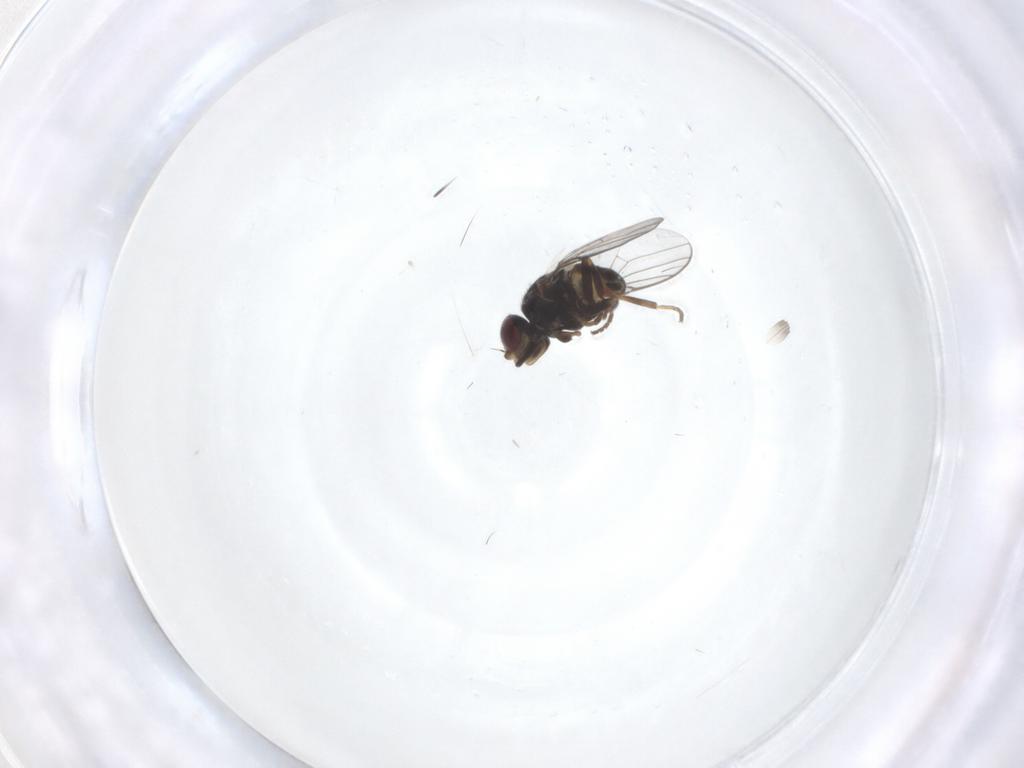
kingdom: Animalia
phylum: Arthropoda
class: Insecta
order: Diptera
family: Chloropidae
